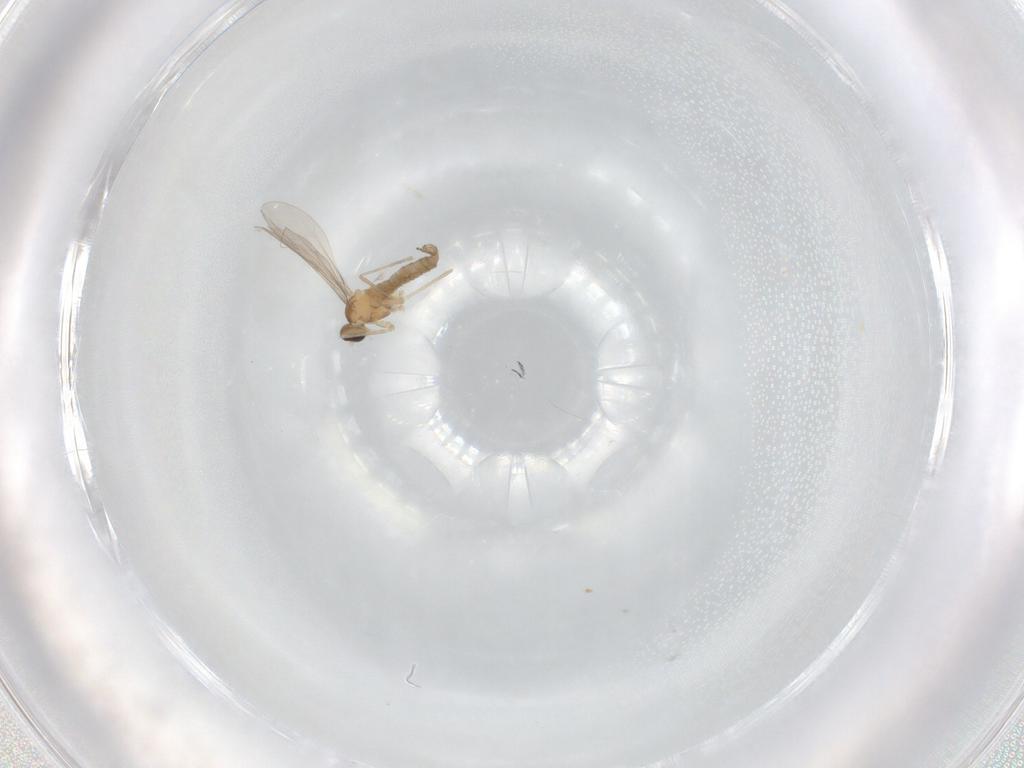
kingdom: Animalia
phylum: Arthropoda
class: Insecta
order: Diptera
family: Cecidomyiidae
